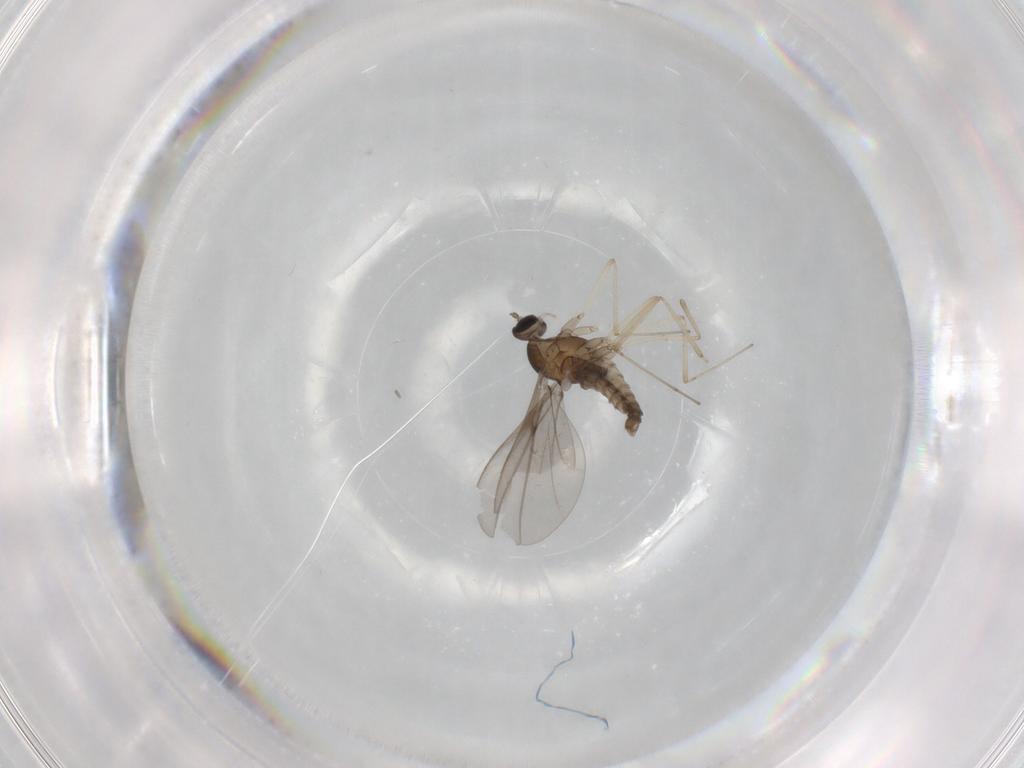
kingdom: Animalia
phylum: Arthropoda
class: Insecta
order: Diptera
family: Cecidomyiidae
